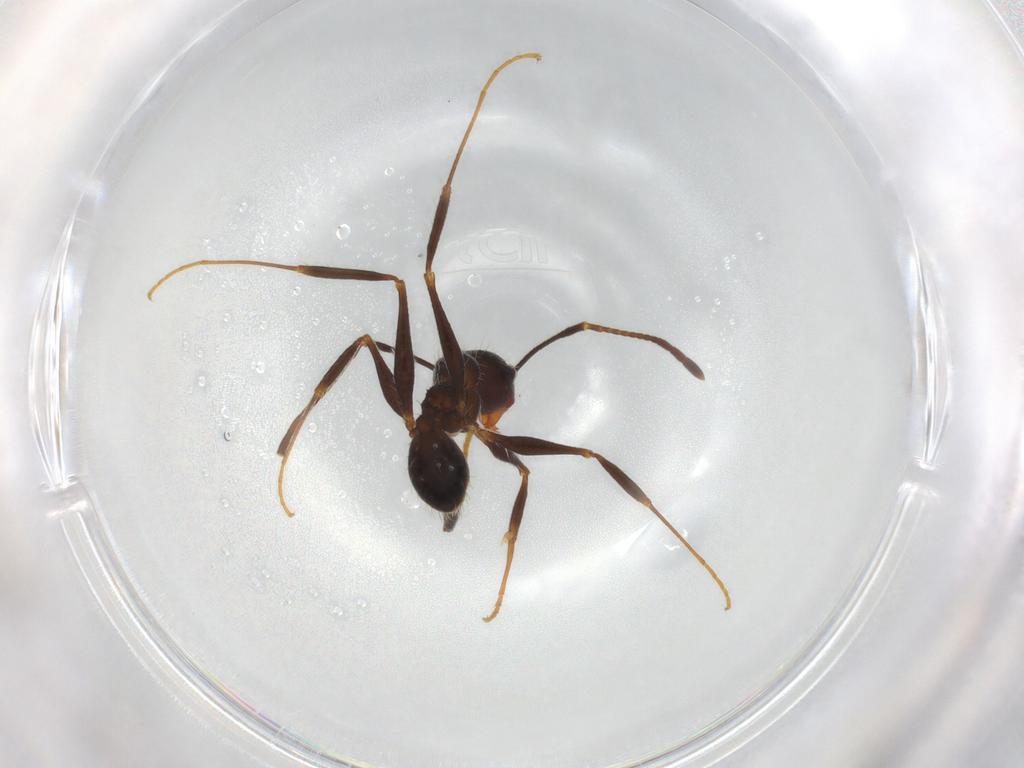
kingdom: Animalia
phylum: Arthropoda
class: Insecta
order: Hymenoptera
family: Formicidae
